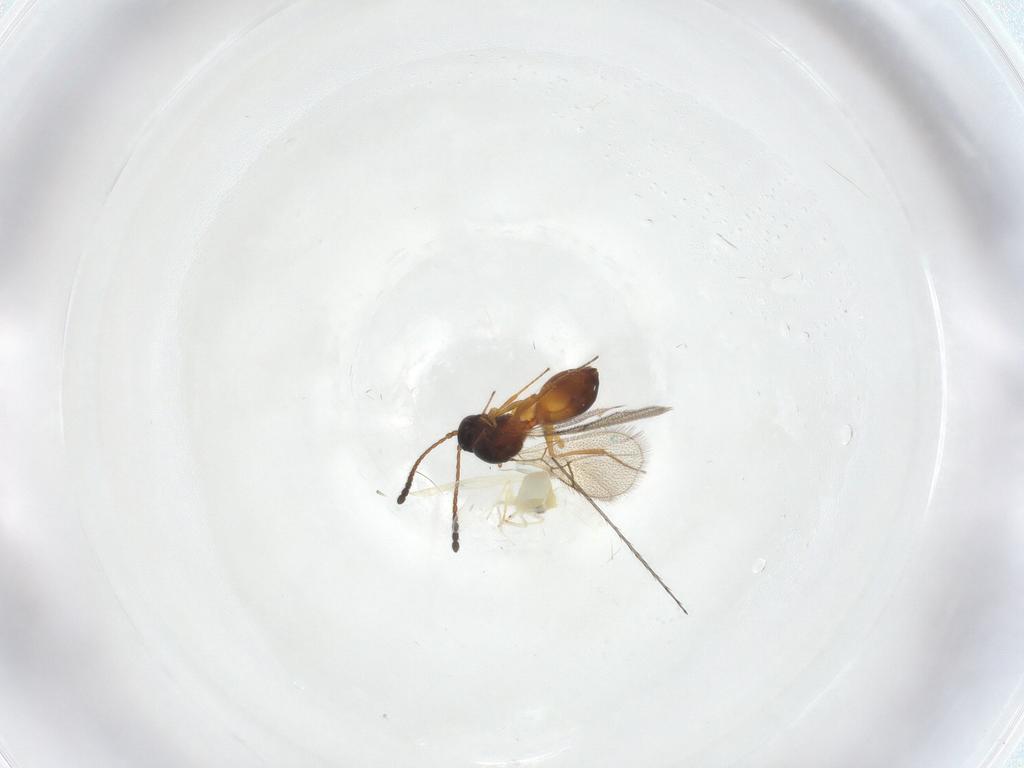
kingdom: Animalia
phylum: Arthropoda
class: Insecta
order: Hymenoptera
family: Figitidae
